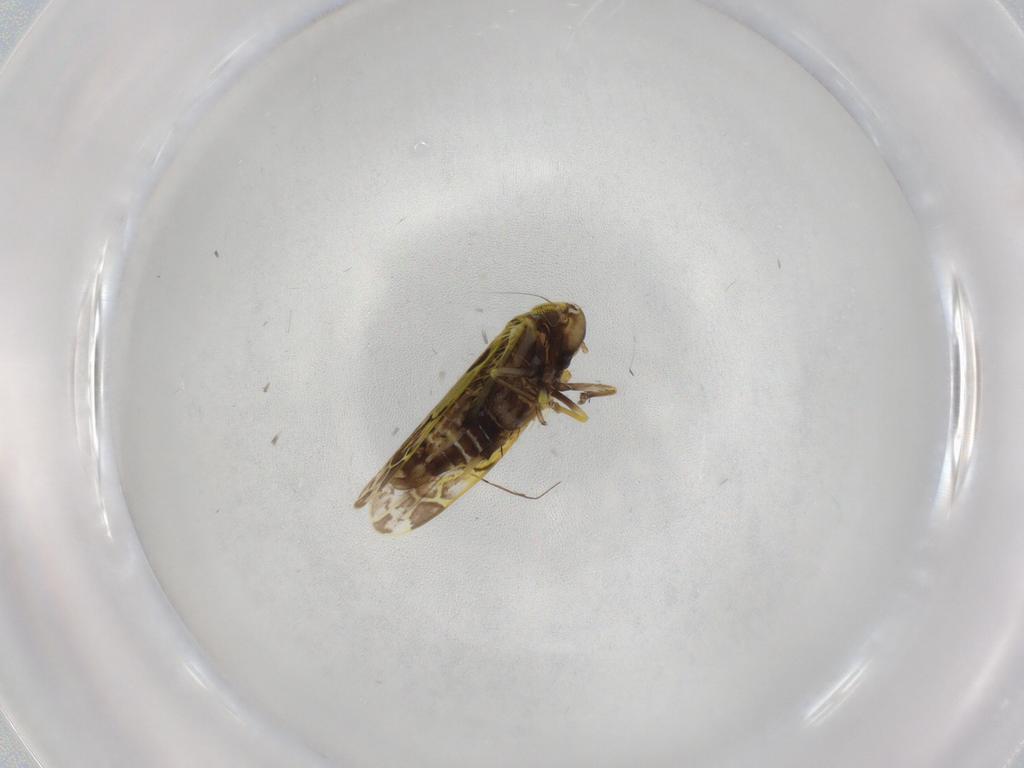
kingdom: Animalia
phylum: Arthropoda
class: Insecta
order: Hemiptera
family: Cicadellidae
